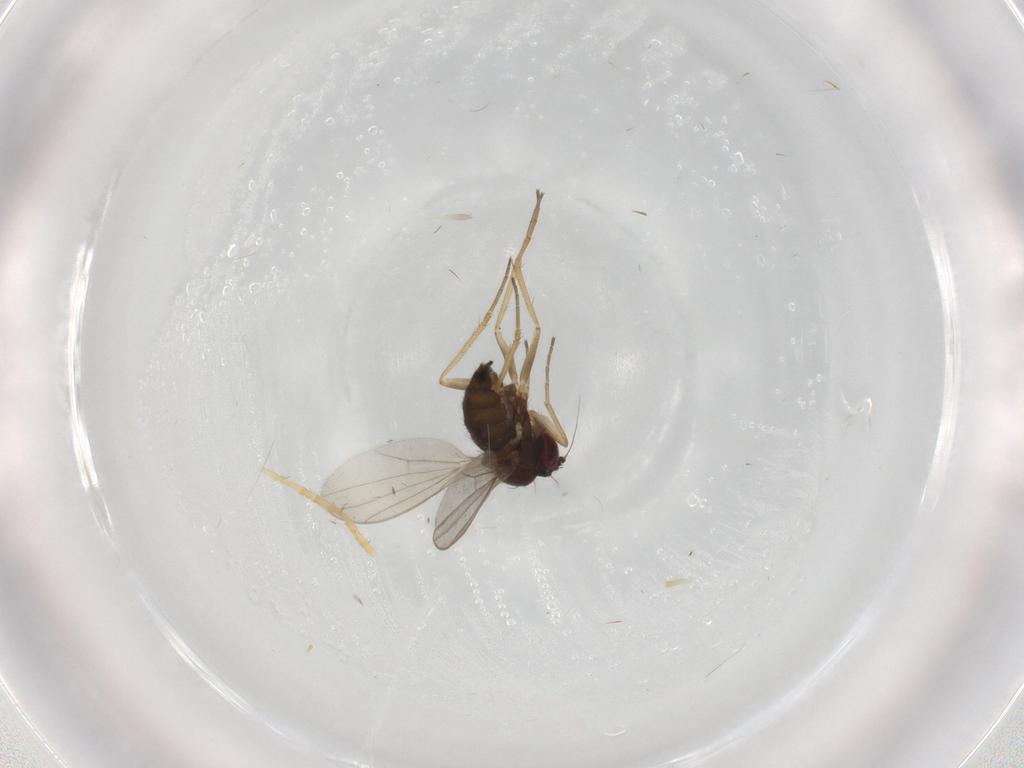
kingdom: Animalia
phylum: Arthropoda
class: Insecta
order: Diptera
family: Dolichopodidae
